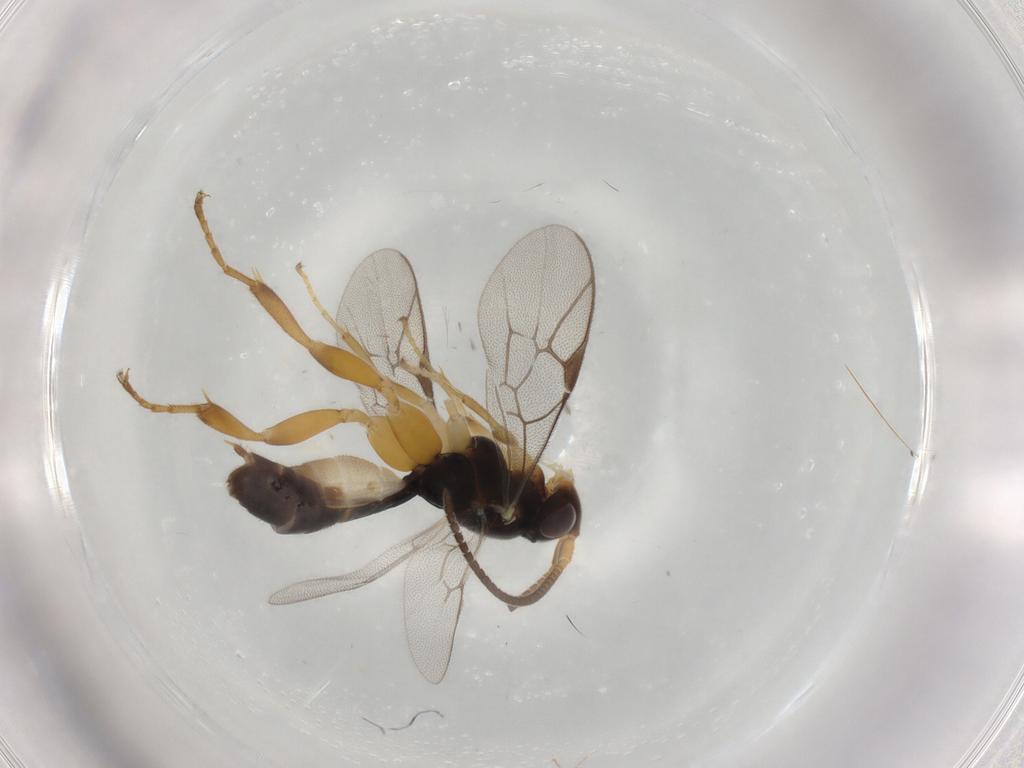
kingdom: Animalia
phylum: Arthropoda
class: Insecta
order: Hymenoptera
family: Ichneumonidae
